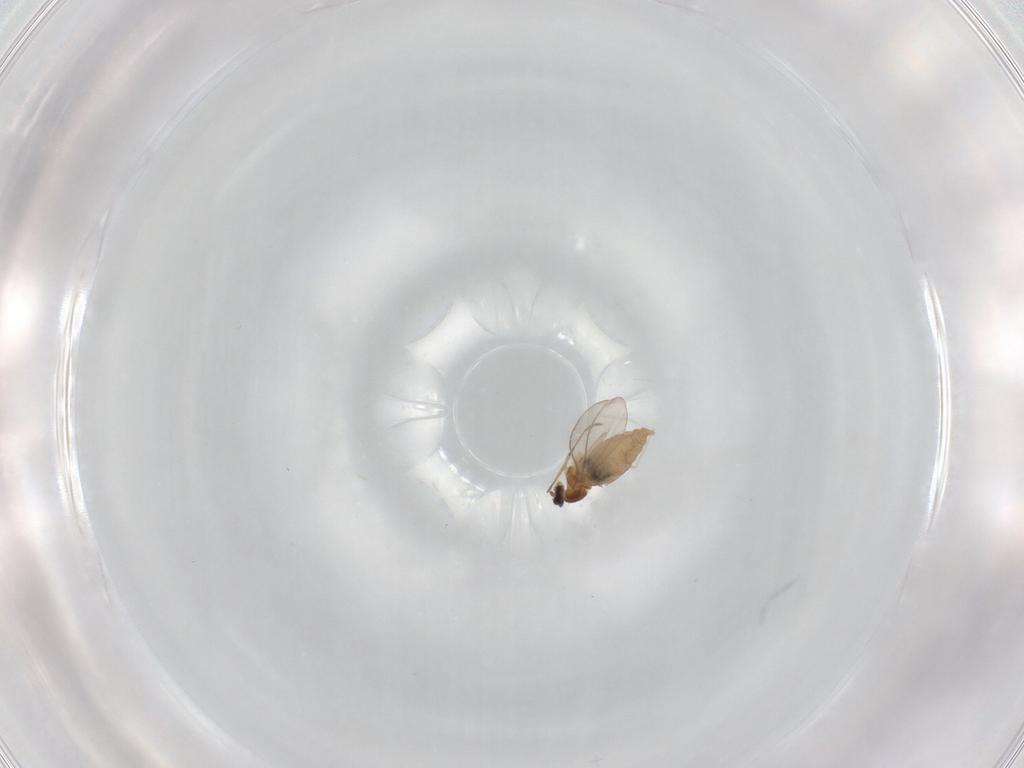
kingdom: Animalia
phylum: Arthropoda
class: Insecta
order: Diptera
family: Cecidomyiidae
